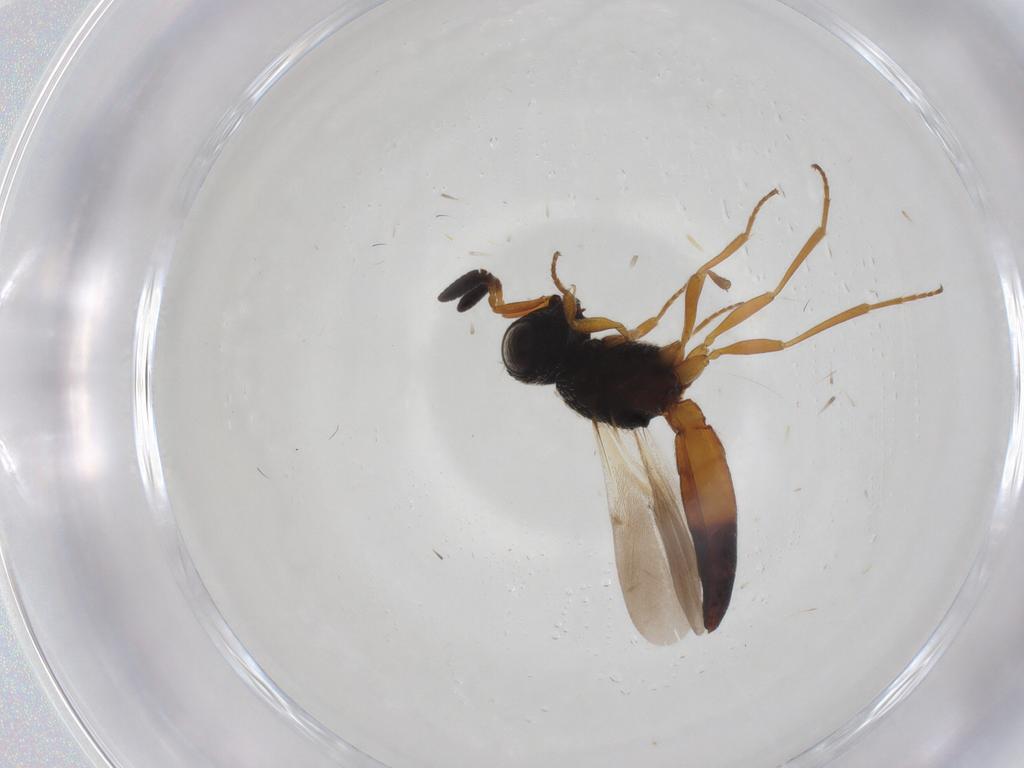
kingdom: Animalia
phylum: Arthropoda
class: Insecta
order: Hymenoptera
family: Scelionidae
